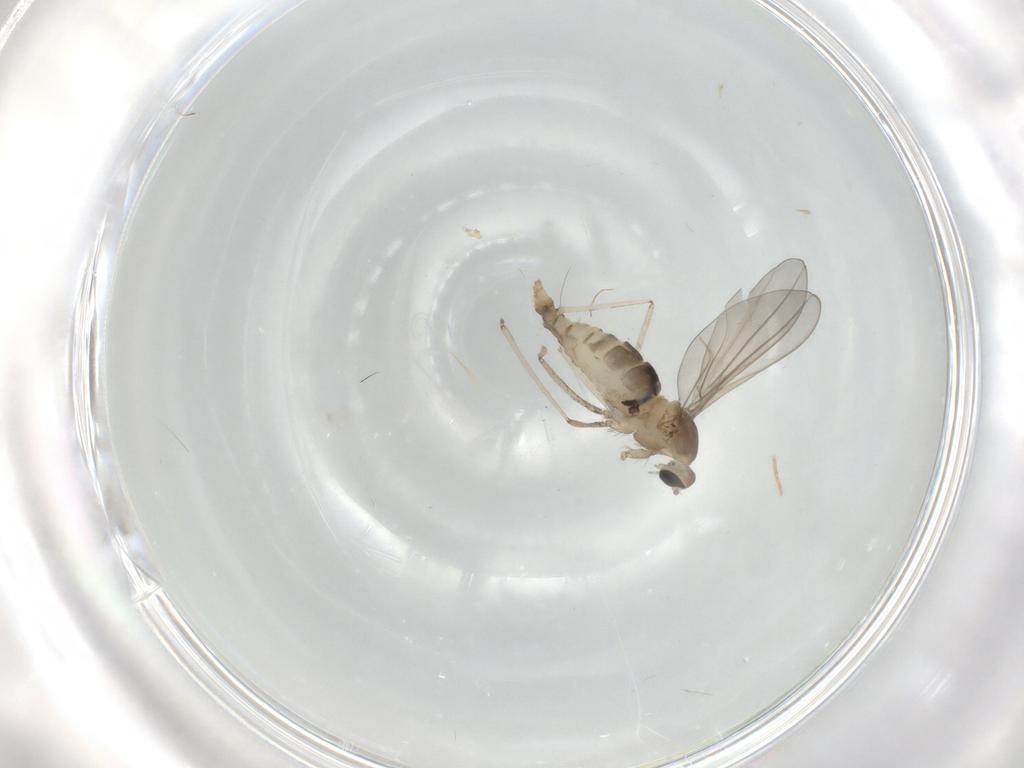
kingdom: Animalia
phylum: Arthropoda
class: Insecta
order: Diptera
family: Cecidomyiidae
